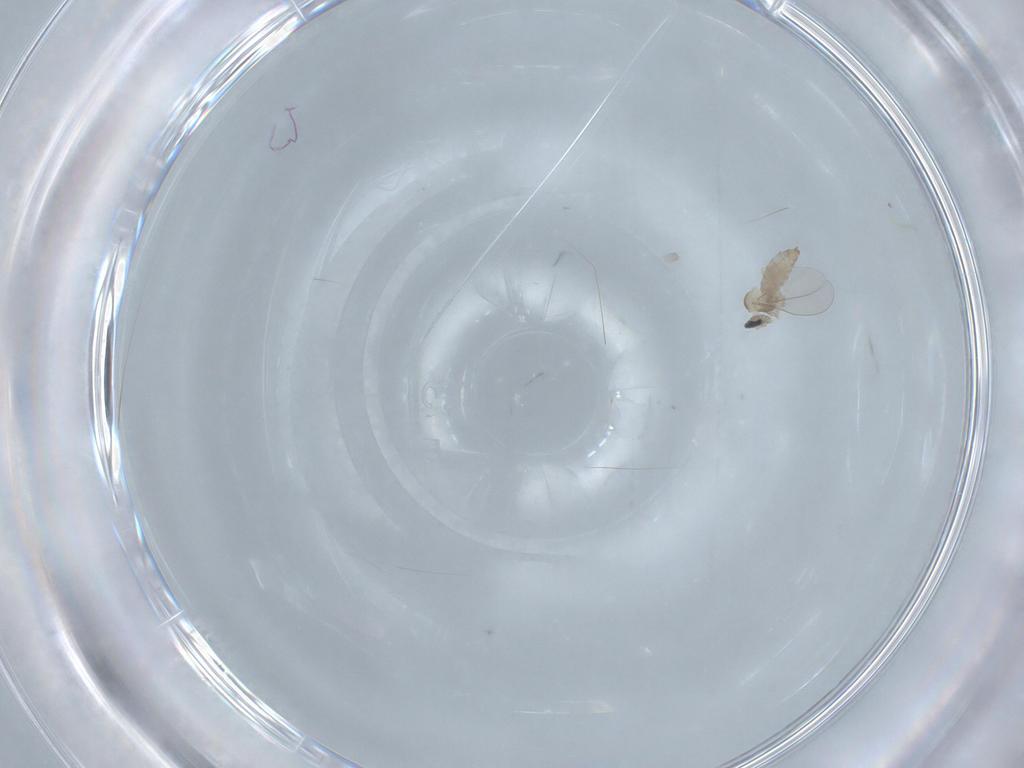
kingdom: Animalia
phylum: Arthropoda
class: Insecta
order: Diptera
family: Cecidomyiidae
